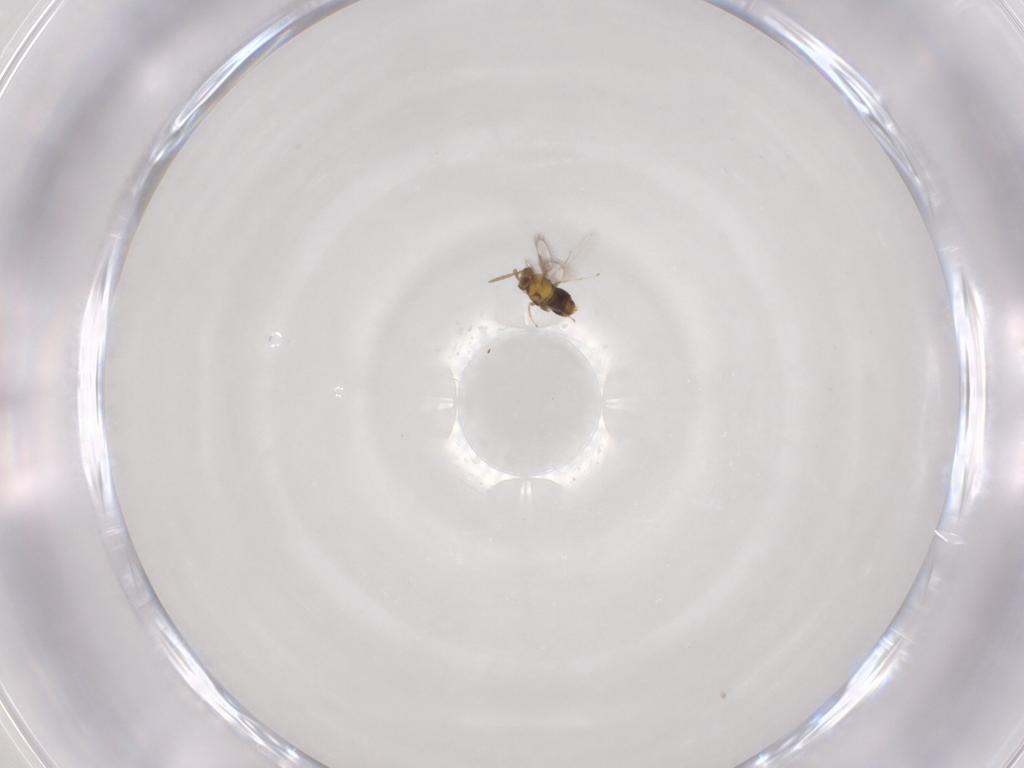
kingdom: Animalia
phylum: Arthropoda
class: Insecta
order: Hymenoptera
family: Aphelinidae
